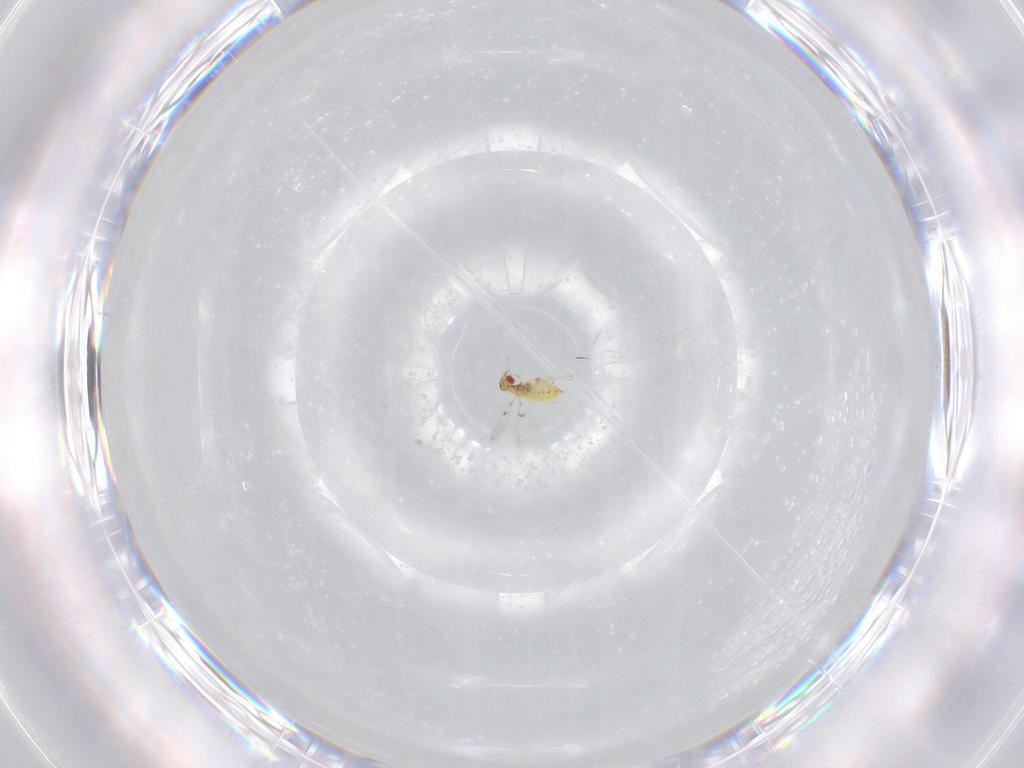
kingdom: Animalia
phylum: Arthropoda
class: Insecta
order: Hymenoptera
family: Trichogrammatidae
